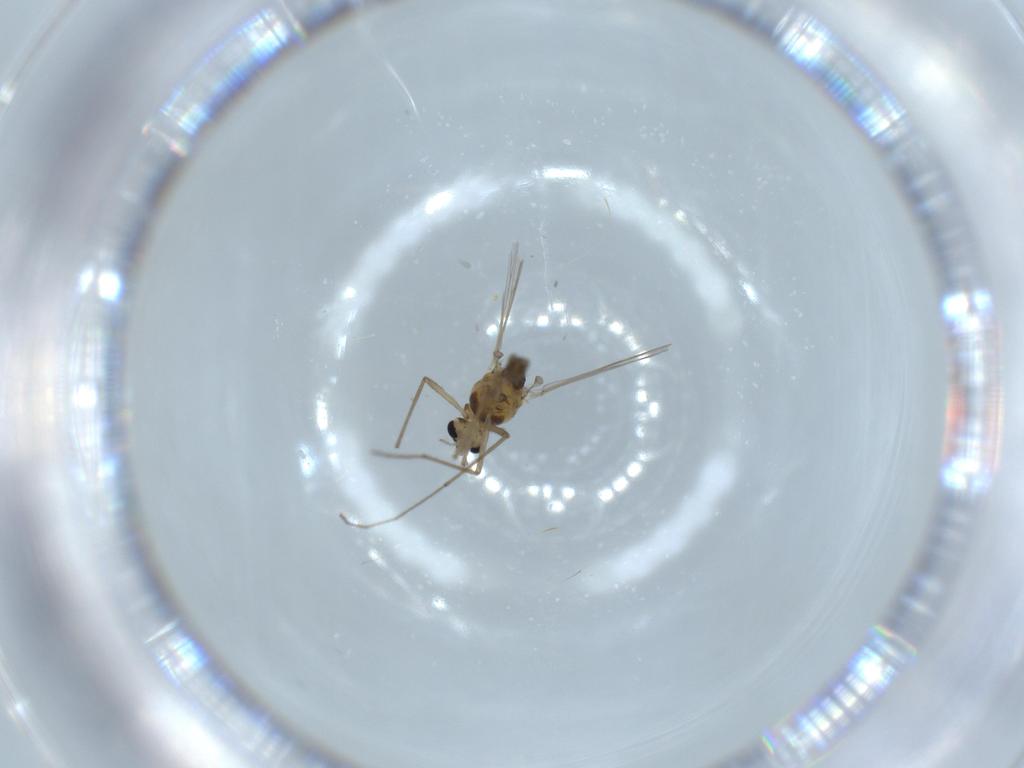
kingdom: Animalia
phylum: Arthropoda
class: Insecta
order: Diptera
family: Chironomidae
